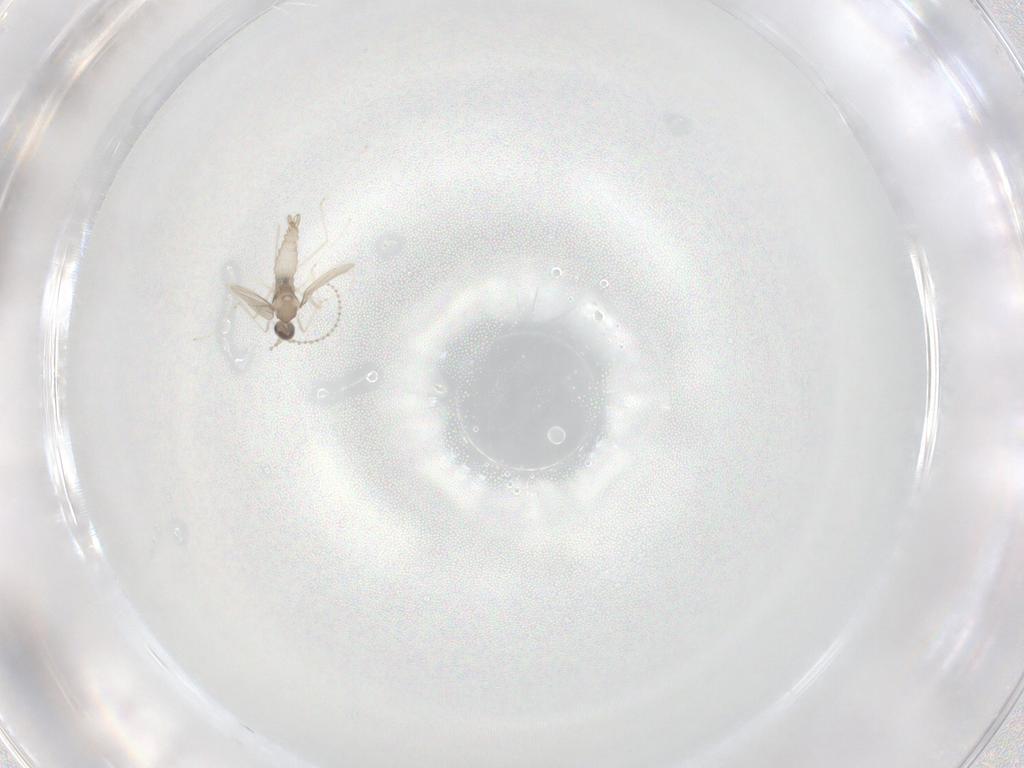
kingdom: Animalia
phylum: Arthropoda
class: Insecta
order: Diptera
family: Cecidomyiidae
